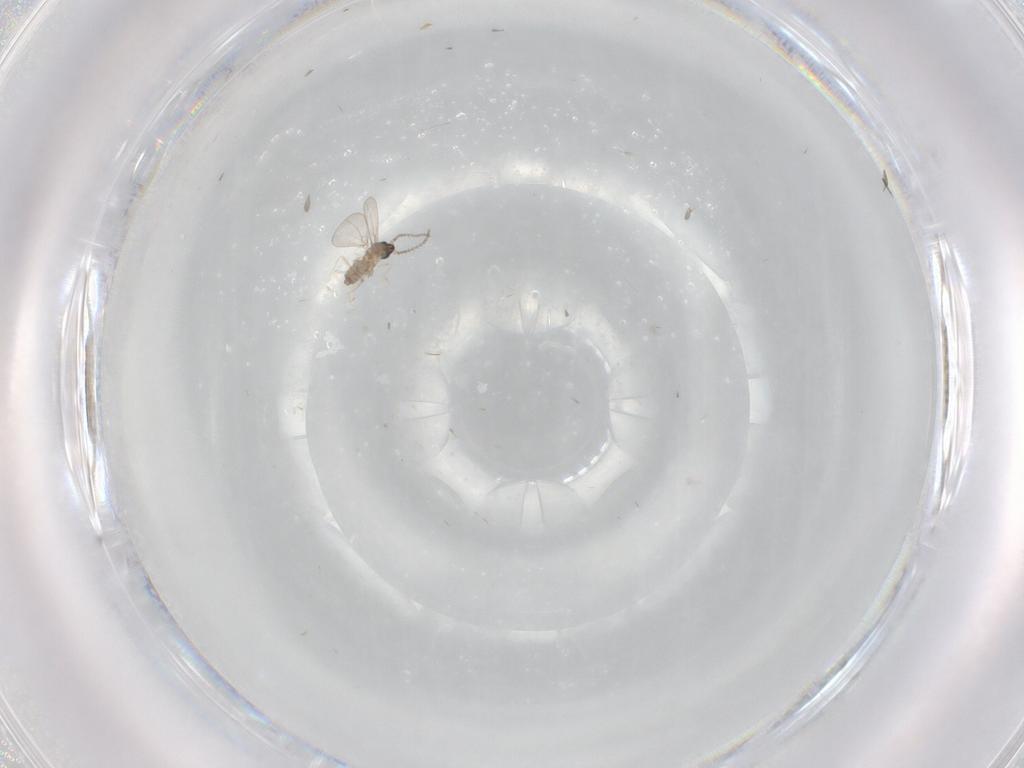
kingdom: Animalia
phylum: Arthropoda
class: Insecta
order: Diptera
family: Cecidomyiidae
